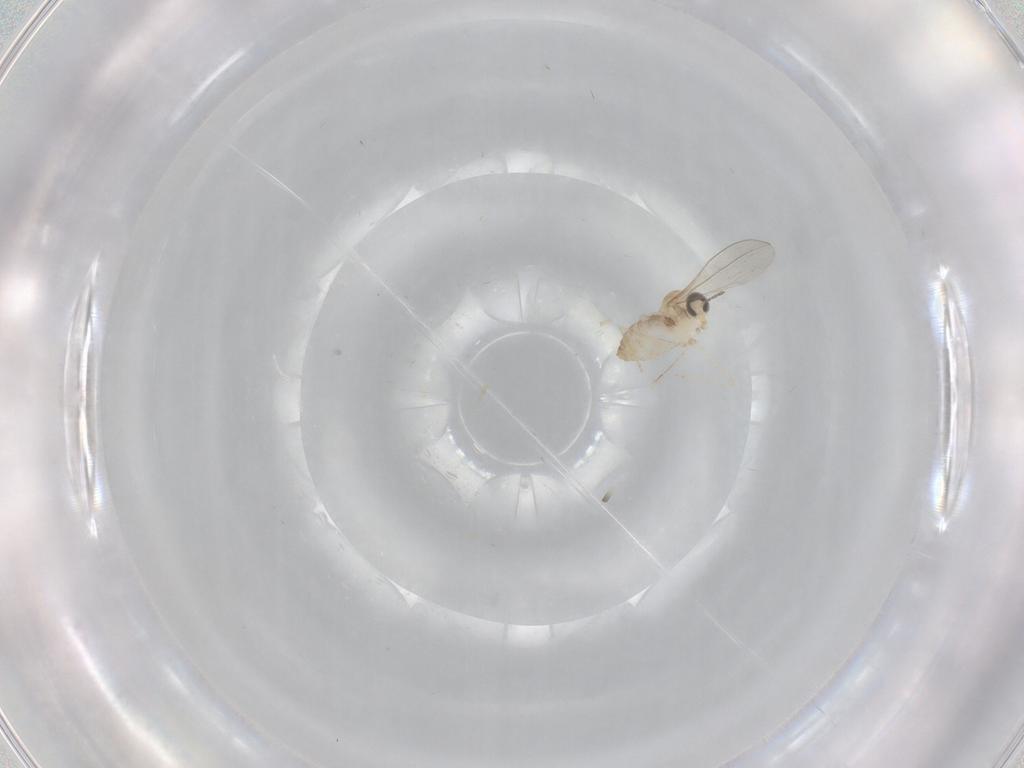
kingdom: Animalia
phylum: Arthropoda
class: Insecta
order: Diptera
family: Cecidomyiidae
